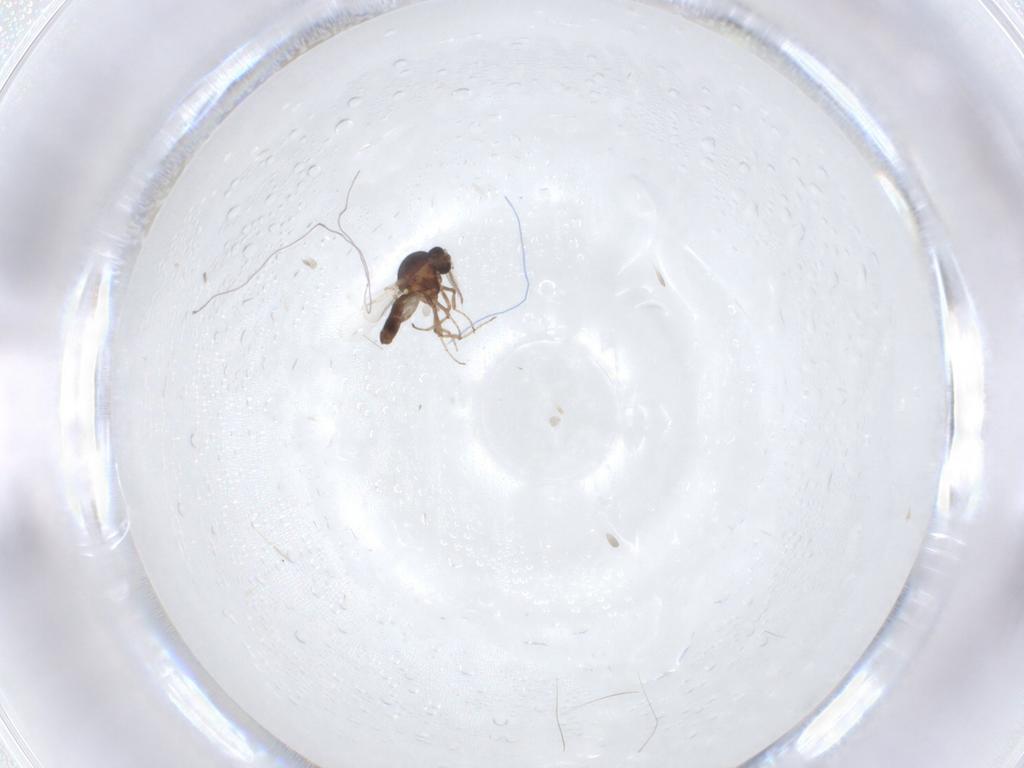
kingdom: Animalia
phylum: Arthropoda
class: Insecta
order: Diptera
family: Ceratopogonidae
